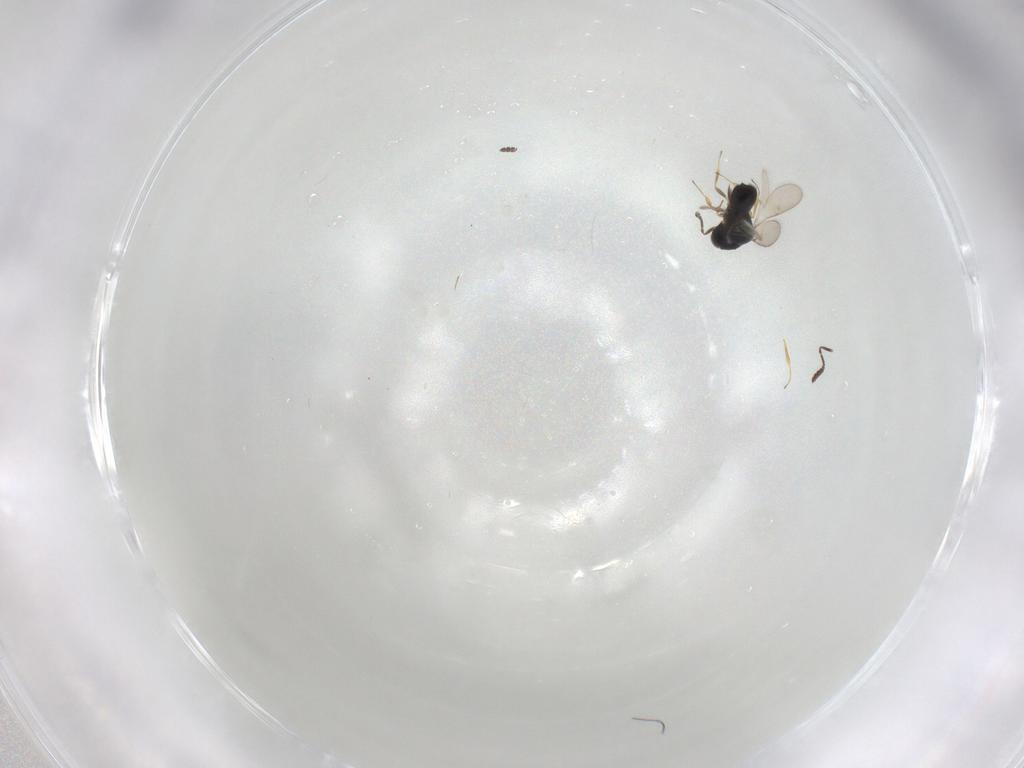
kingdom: Animalia
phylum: Arthropoda
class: Insecta
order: Hymenoptera
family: Scelionidae
